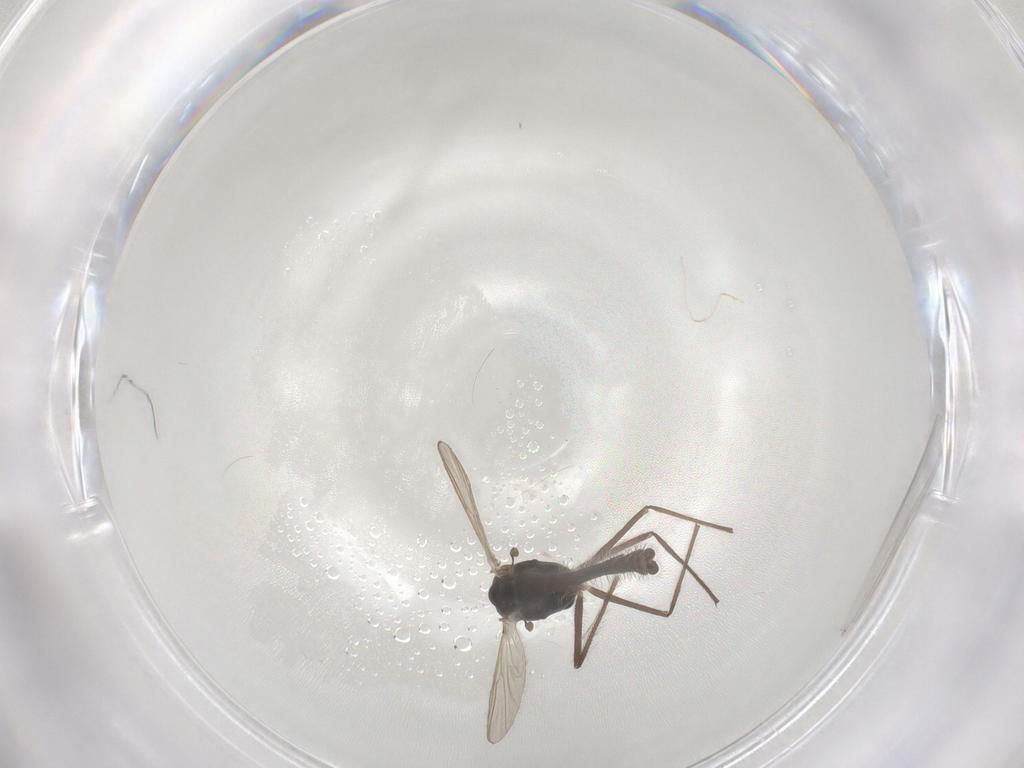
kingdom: Animalia
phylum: Arthropoda
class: Insecta
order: Diptera
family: Chironomidae
